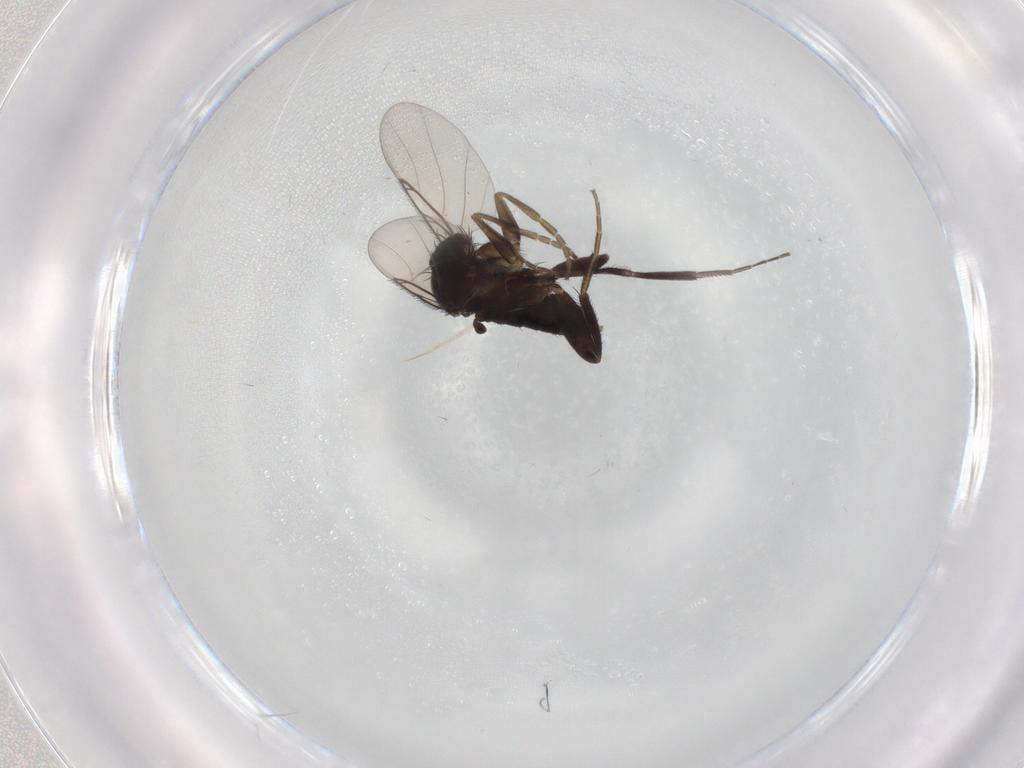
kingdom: Animalia
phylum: Arthropoda
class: Insecta
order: Diptera
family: Phoridae
